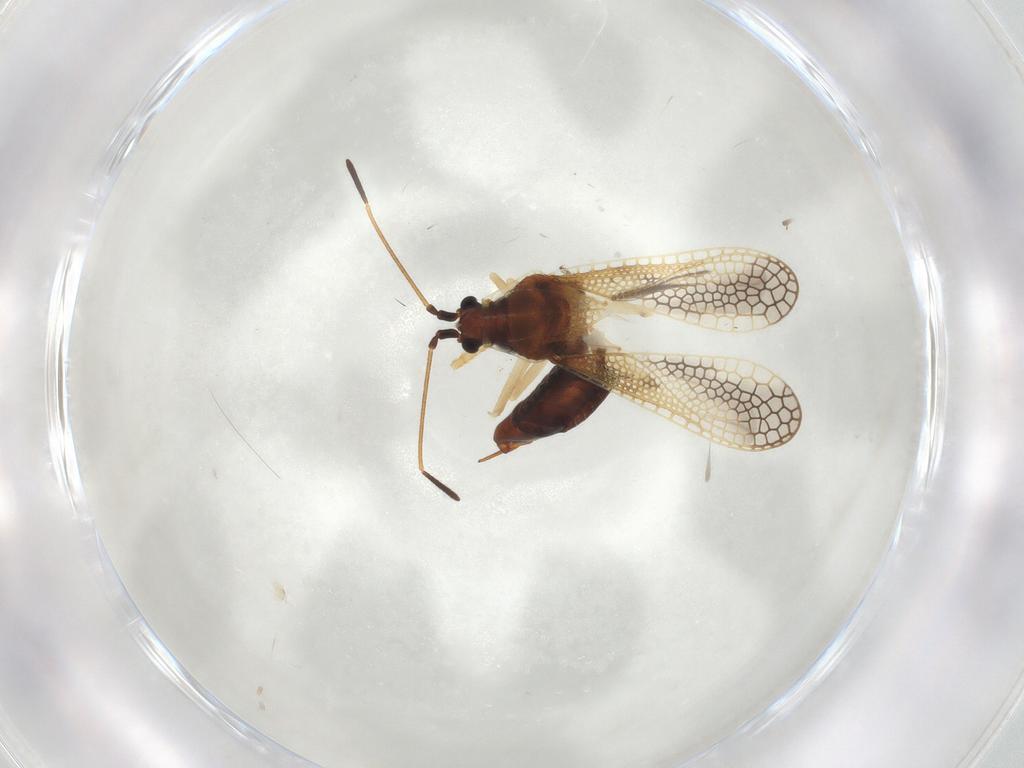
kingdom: Animalia
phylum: Arthropoda
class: Insecta
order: Hemiptera
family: Tingidae
